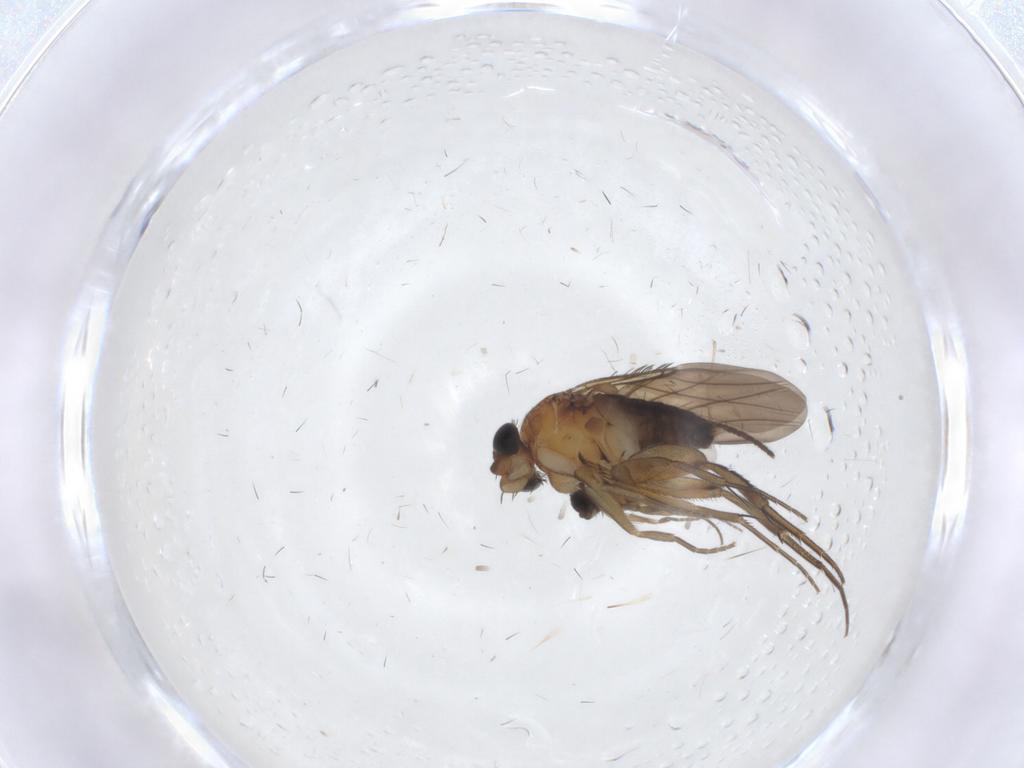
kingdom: Animalia
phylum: Arthropoda
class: Insecta
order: Diptera
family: Phoridae
